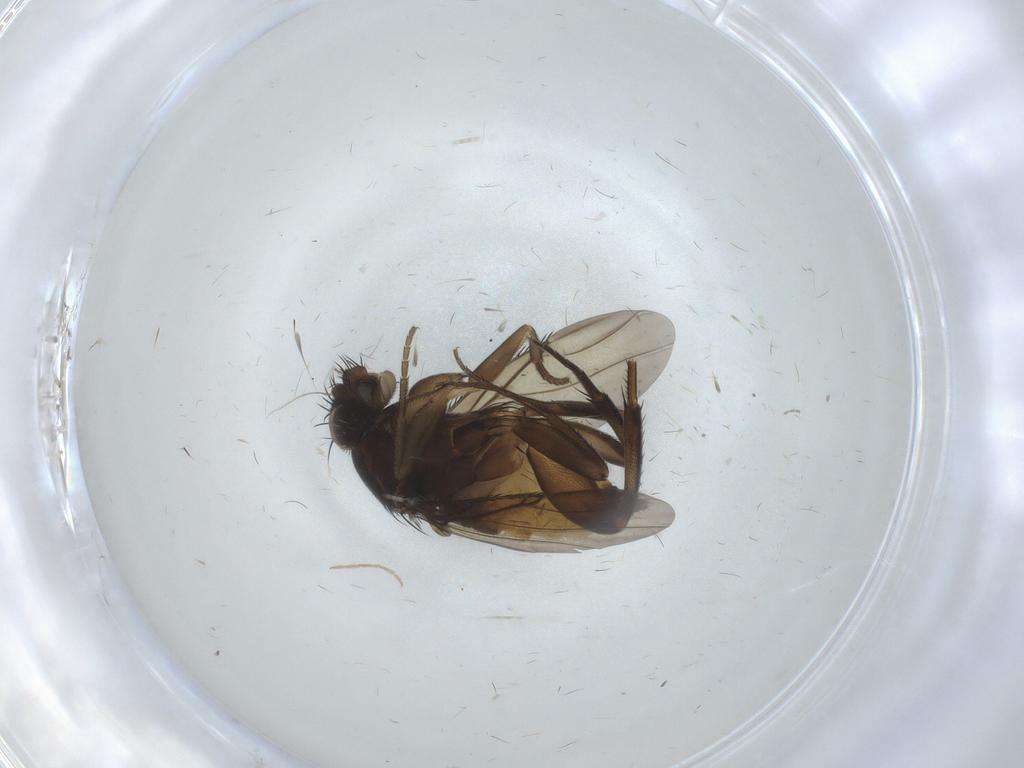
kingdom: Animalia
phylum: Arthropoda
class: Insecta
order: Diptera
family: Phoridae
